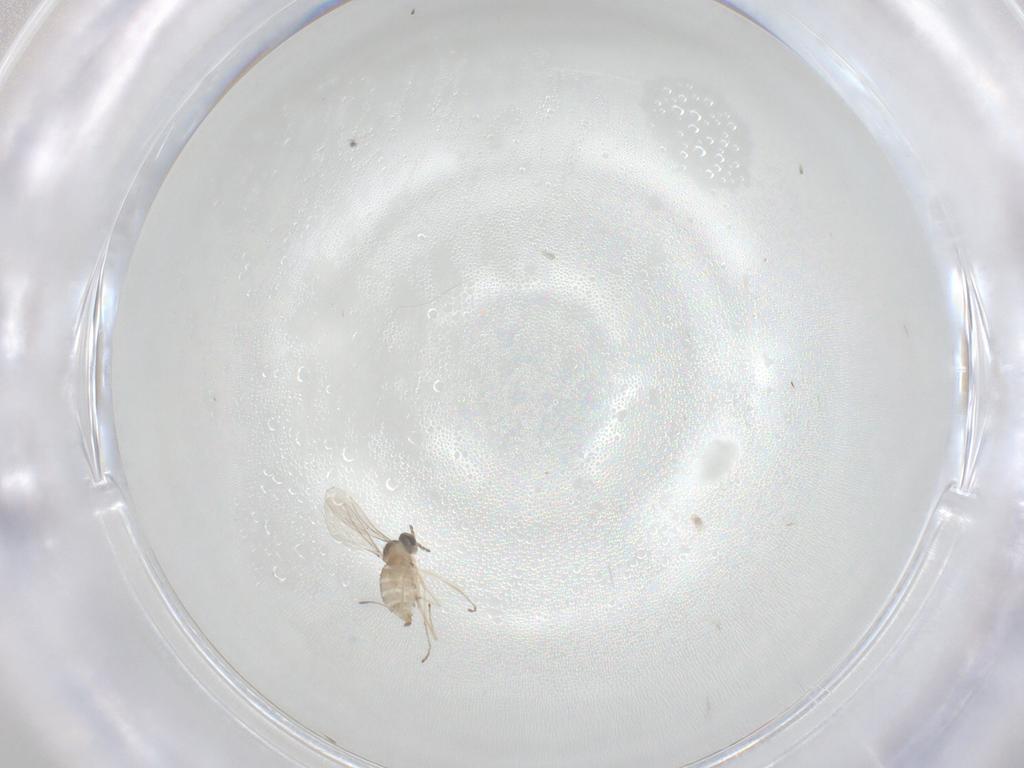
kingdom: Animalia
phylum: Arthropoda
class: Insecta
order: Diptera
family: Cecidomyiidae
